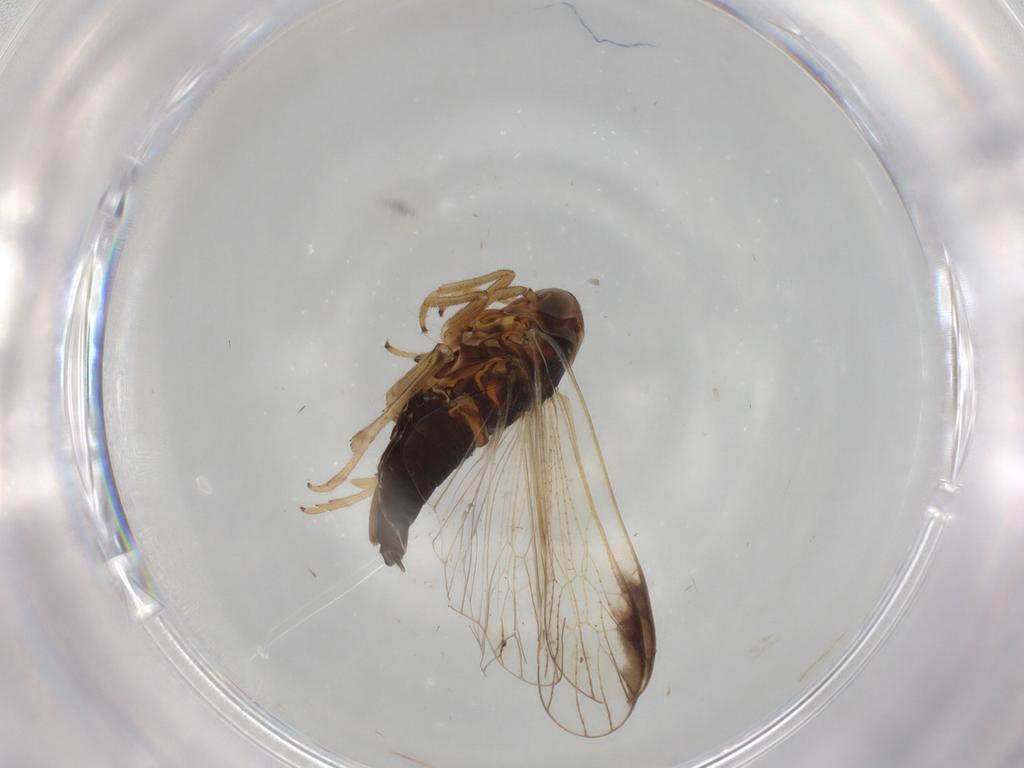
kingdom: Animalia
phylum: Arthropoda
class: Insecta
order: Hemiptera
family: Delphacidae
